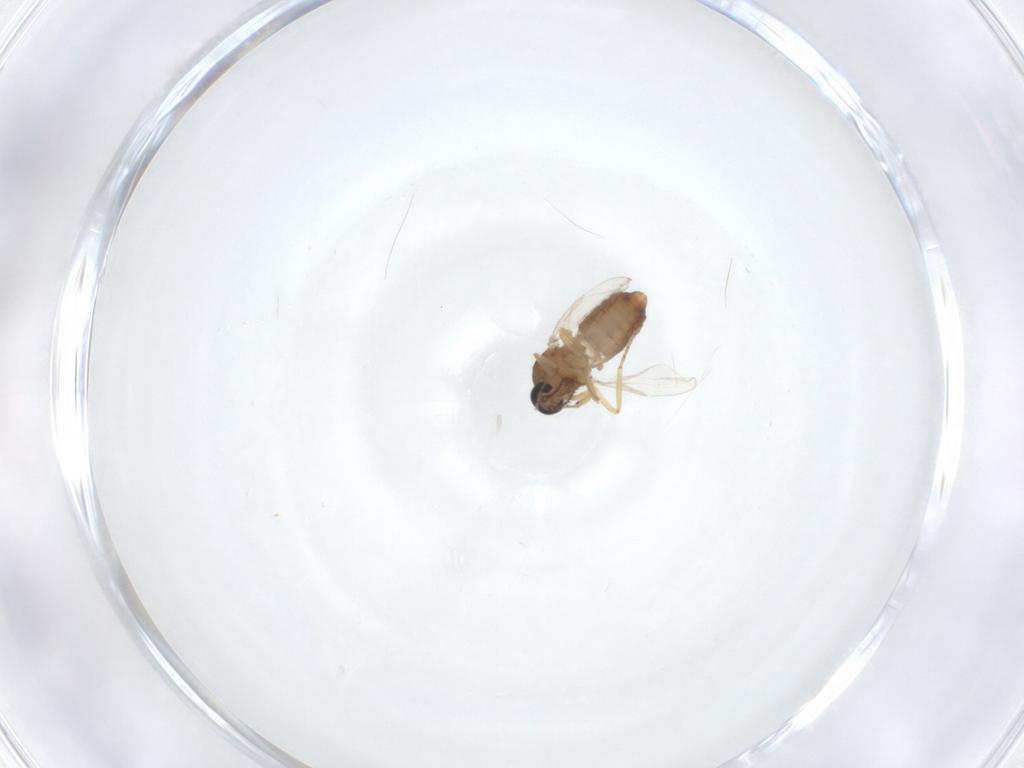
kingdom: Animalia
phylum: Arthropoda
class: Insecta
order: Diptera
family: Ceratopogonidae
